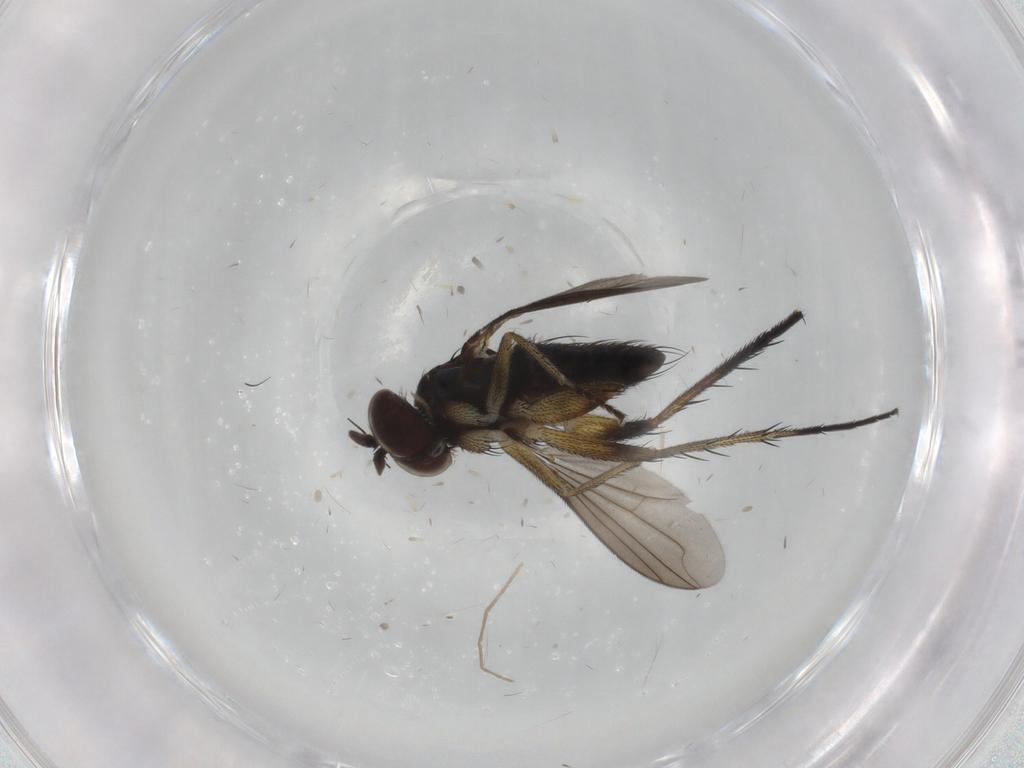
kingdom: Animalia
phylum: Arthropoda
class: Insecta
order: Diptera
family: Dolichopodidae
